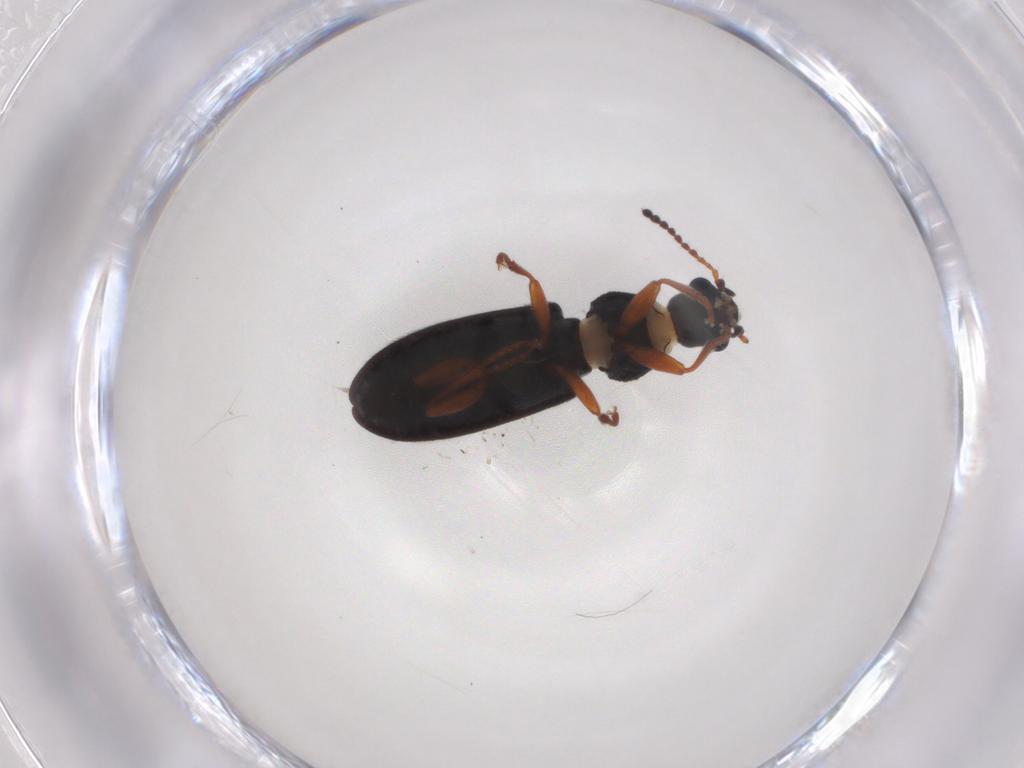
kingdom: Animalia
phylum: Arthropoda
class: Insecta
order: Coleoptera
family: Melyridae
